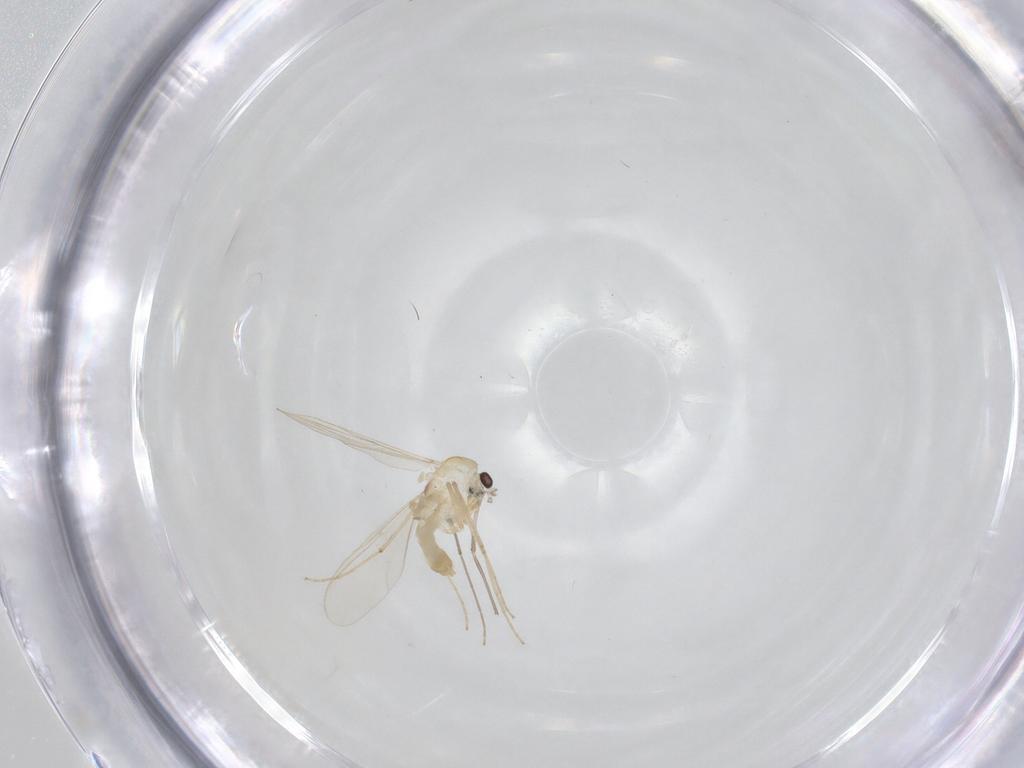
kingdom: Animalia
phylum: Arthropoda
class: Insecta
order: Diptera
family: Chironomidae
